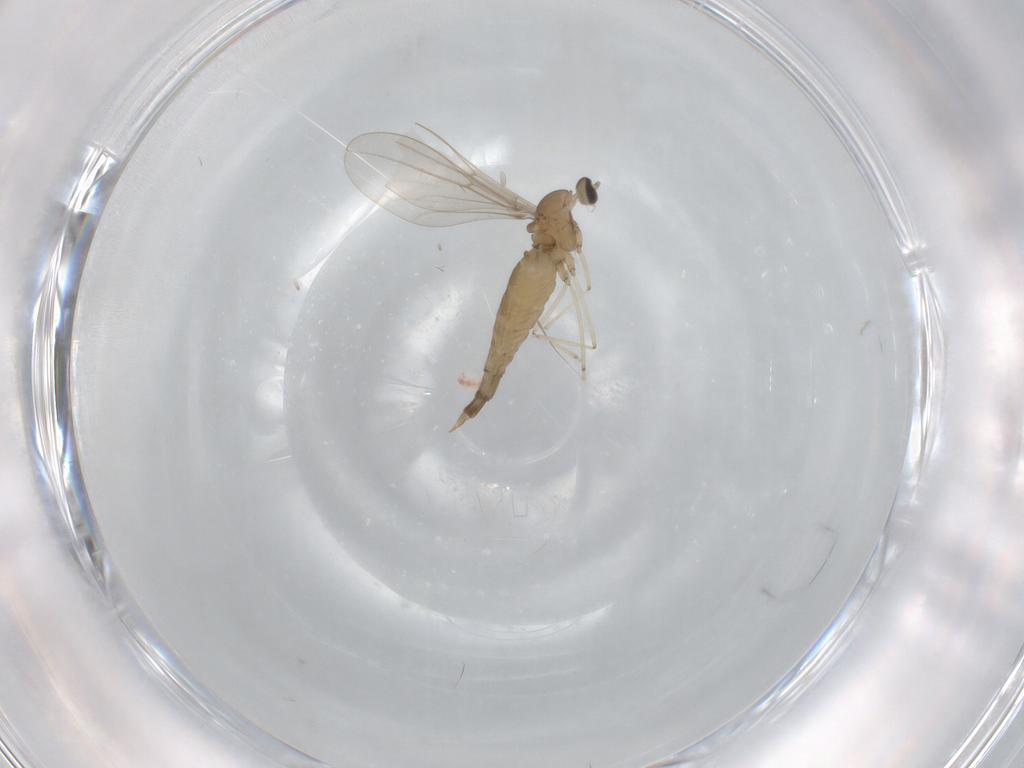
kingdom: Animalia
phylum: Arthropoda
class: Insecta
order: Diptera
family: Cecidomyiidae
